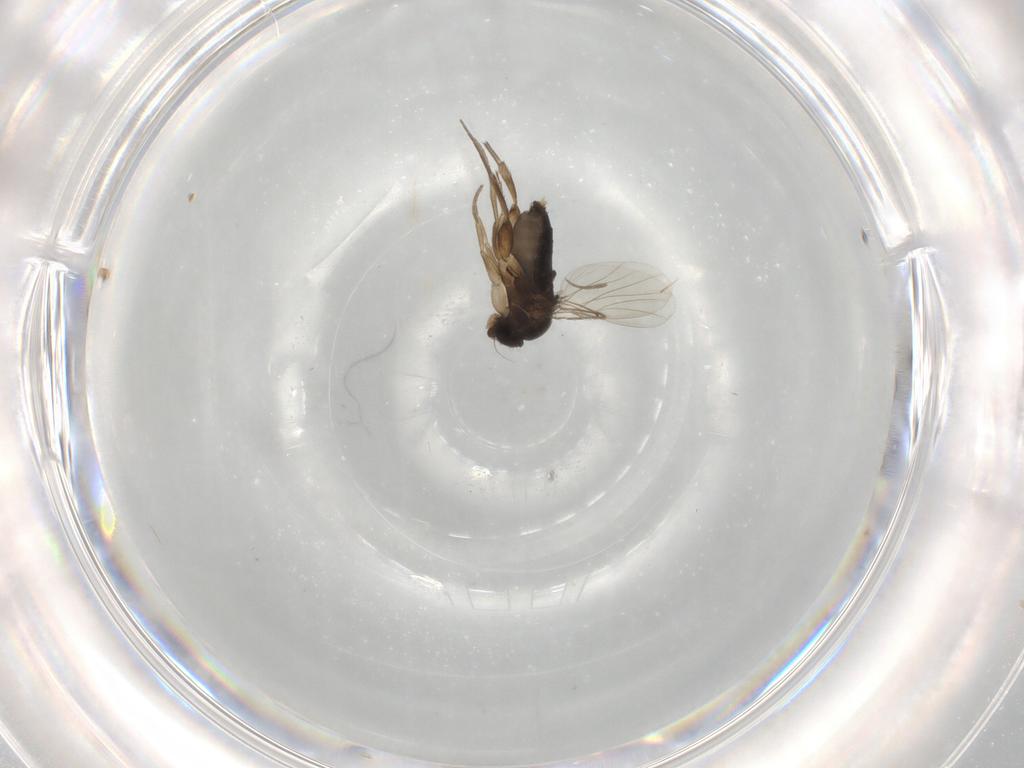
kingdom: Animalia
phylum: Arthropoda
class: Insecta
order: Diptera
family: Phoridae
